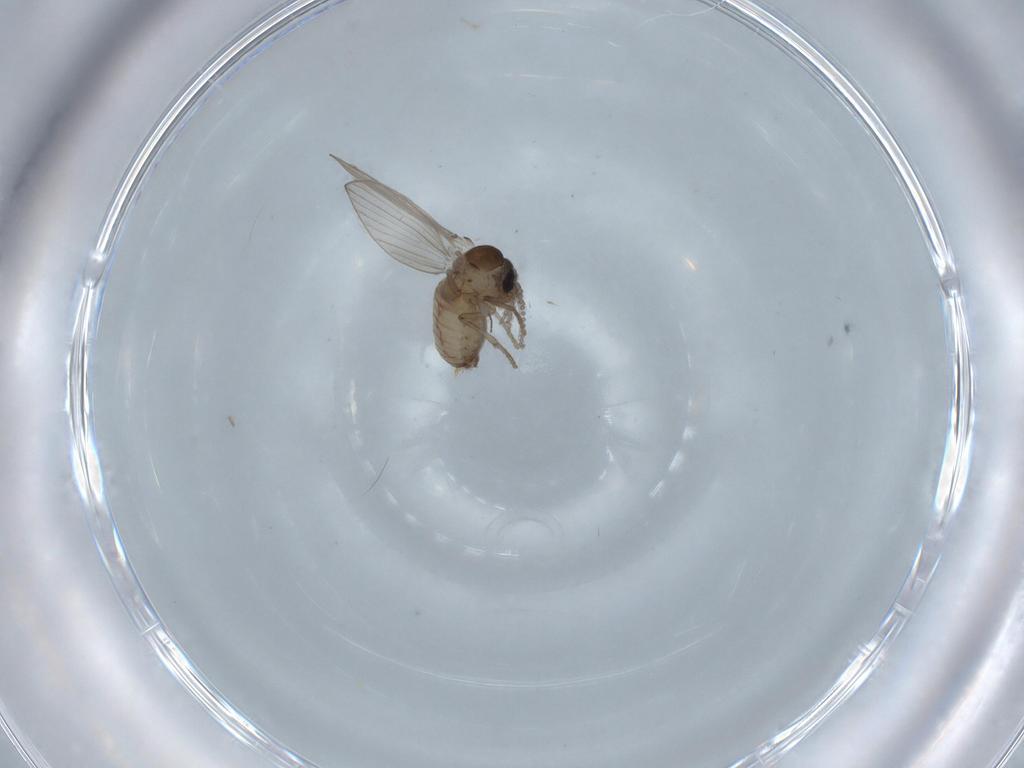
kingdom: Animalia
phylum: Arthropoda
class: Insecta
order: Diptera
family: Psychodidae
